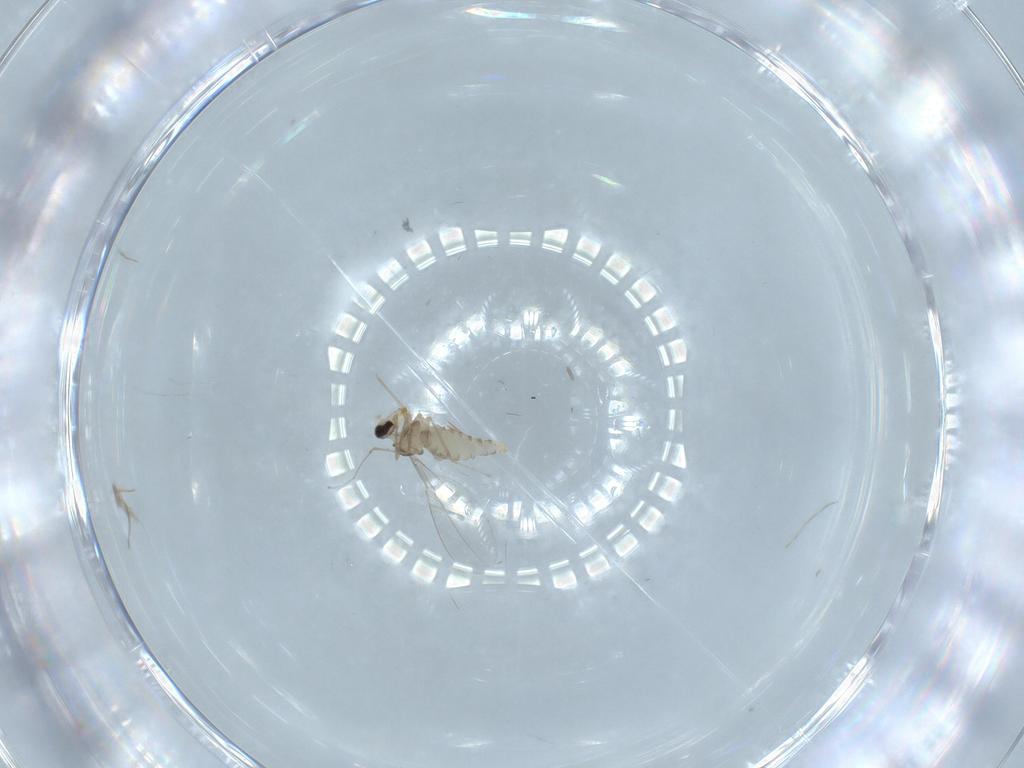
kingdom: Animalia
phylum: Arthropoda
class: Insecta
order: Diptera
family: Cecidomyiidae
